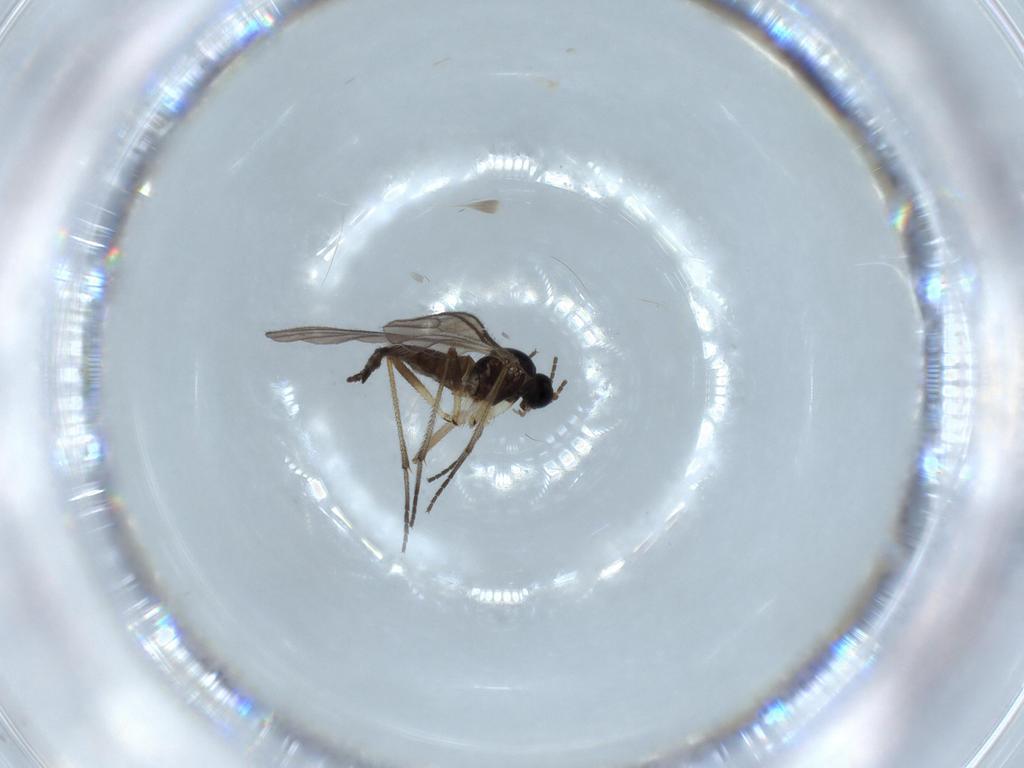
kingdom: Animalia
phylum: Arthropoda
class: Insecta
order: Diptera
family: Sciaridae
